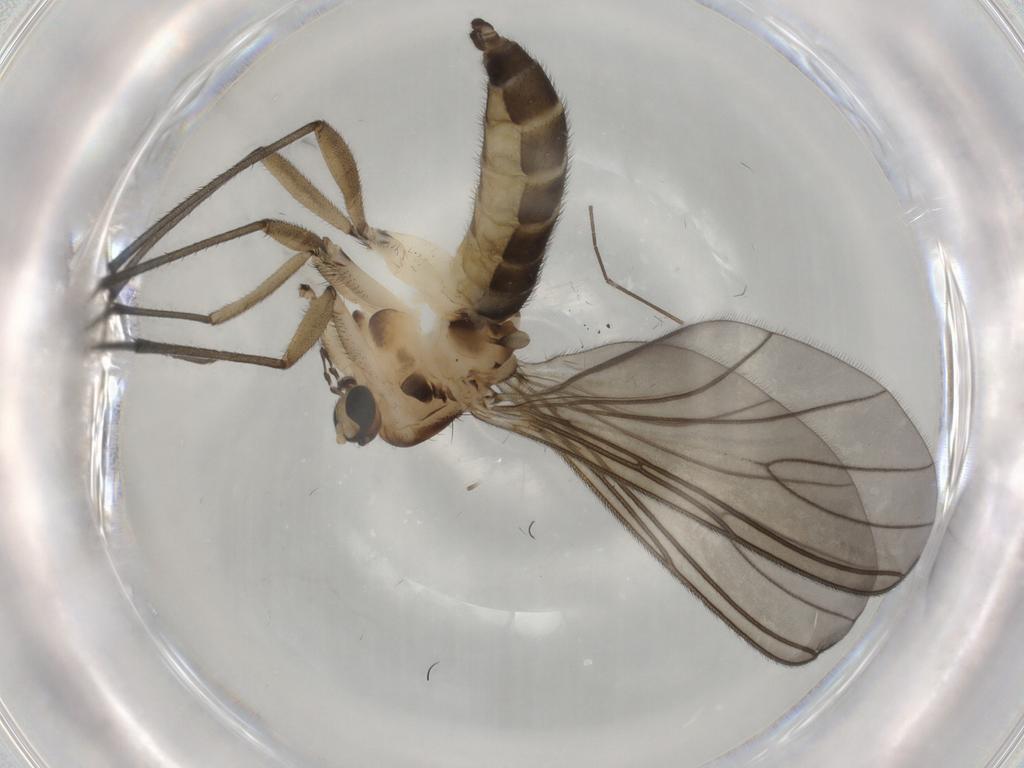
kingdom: Animalia
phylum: Arthropoda
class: Insecta
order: Diptera
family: Sciaridae
